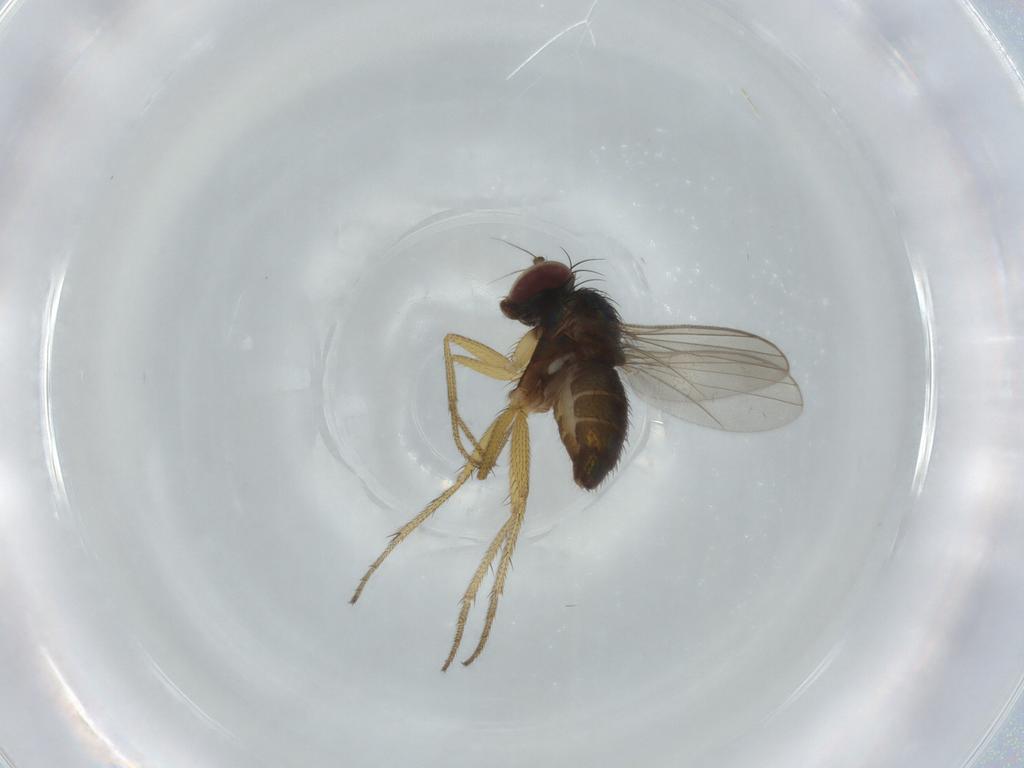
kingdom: Animalia
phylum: Arthropoda
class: Insecta
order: Diptera
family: Dolichopodidae
